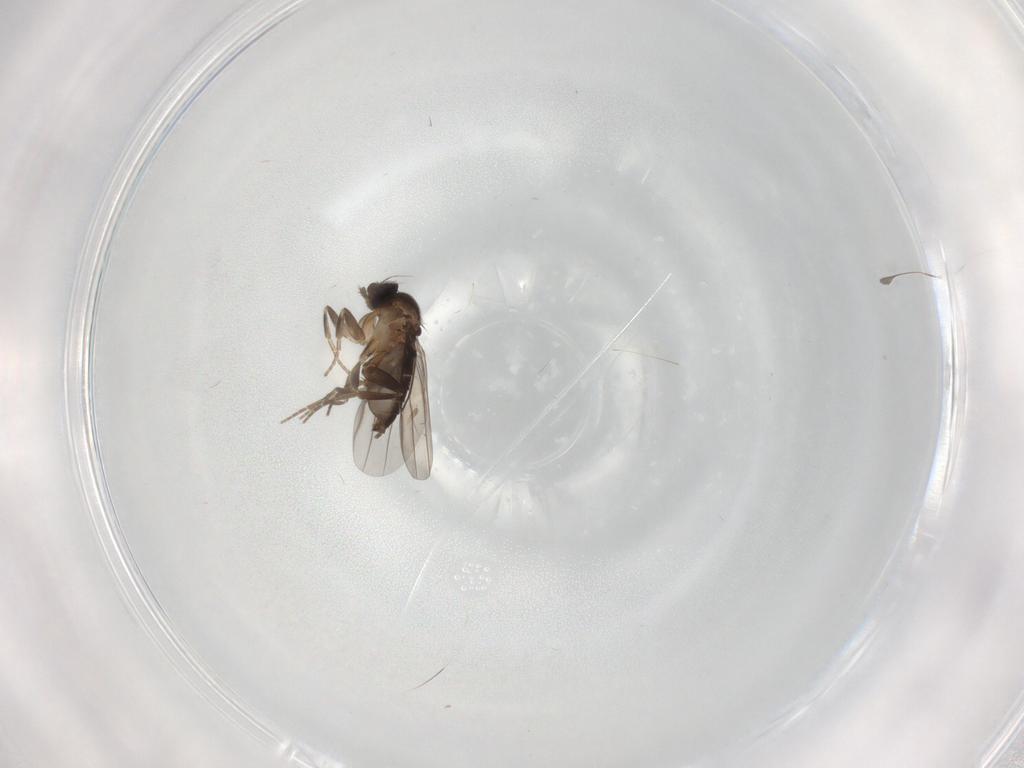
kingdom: Animalia
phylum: Arthropoda
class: Insecta
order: Diptera
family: Phoridae
